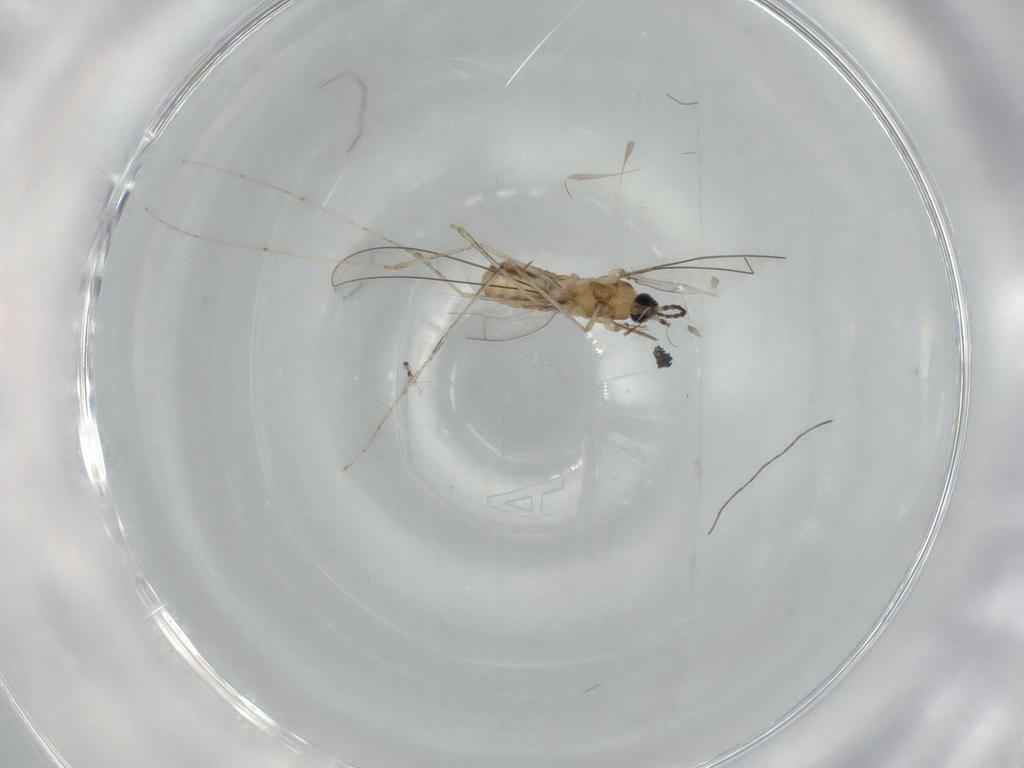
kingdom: Animalia
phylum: Arthropoda
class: Insecta
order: Diptera
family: Cecidomyiidae
